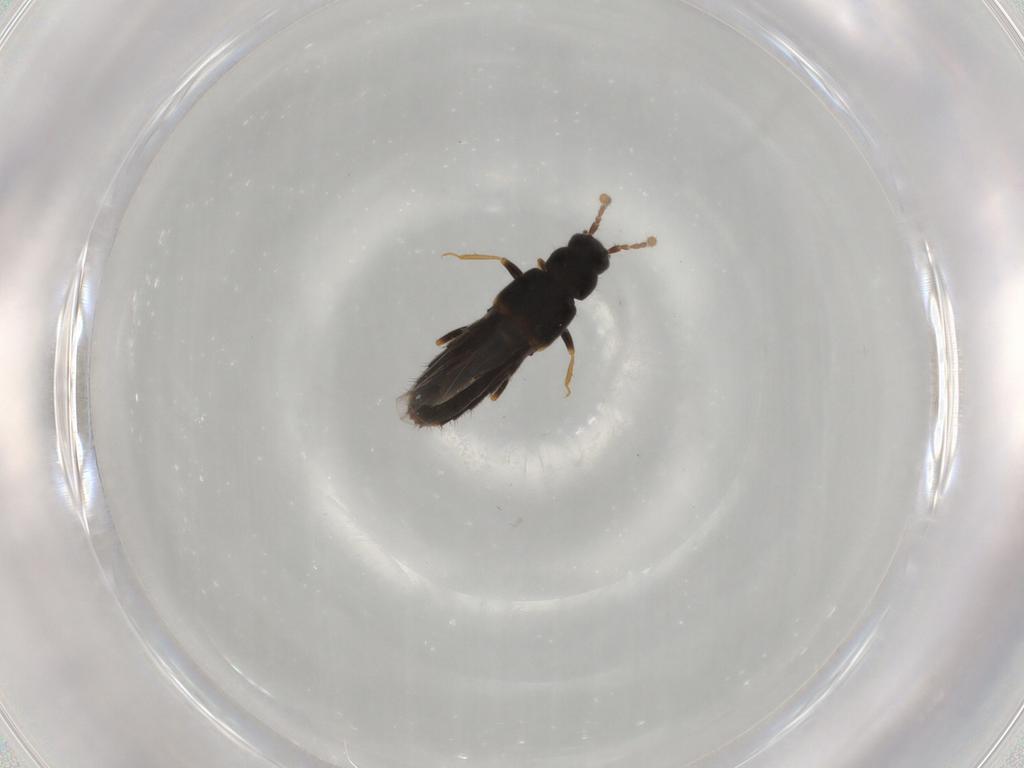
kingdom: Animalia
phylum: Arthropoda
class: Insecta
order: Coleoptera
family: Staphylinidae
